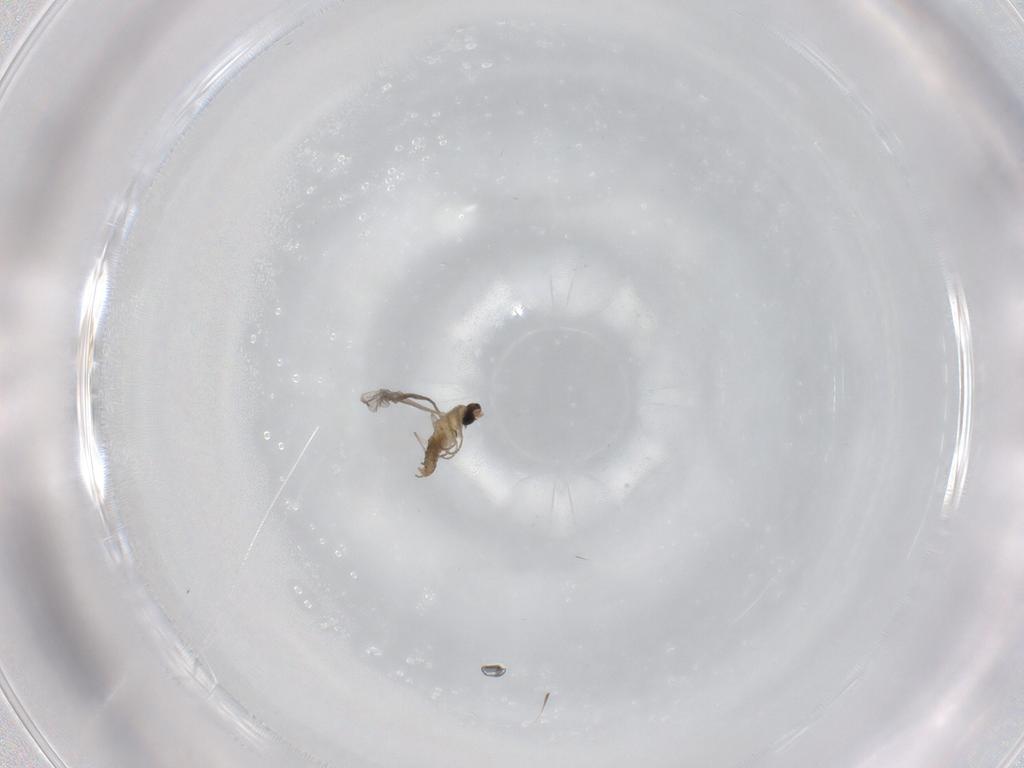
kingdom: Animalia
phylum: Arthropoda
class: Insecta
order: Diptera
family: Cecidomyiidae
